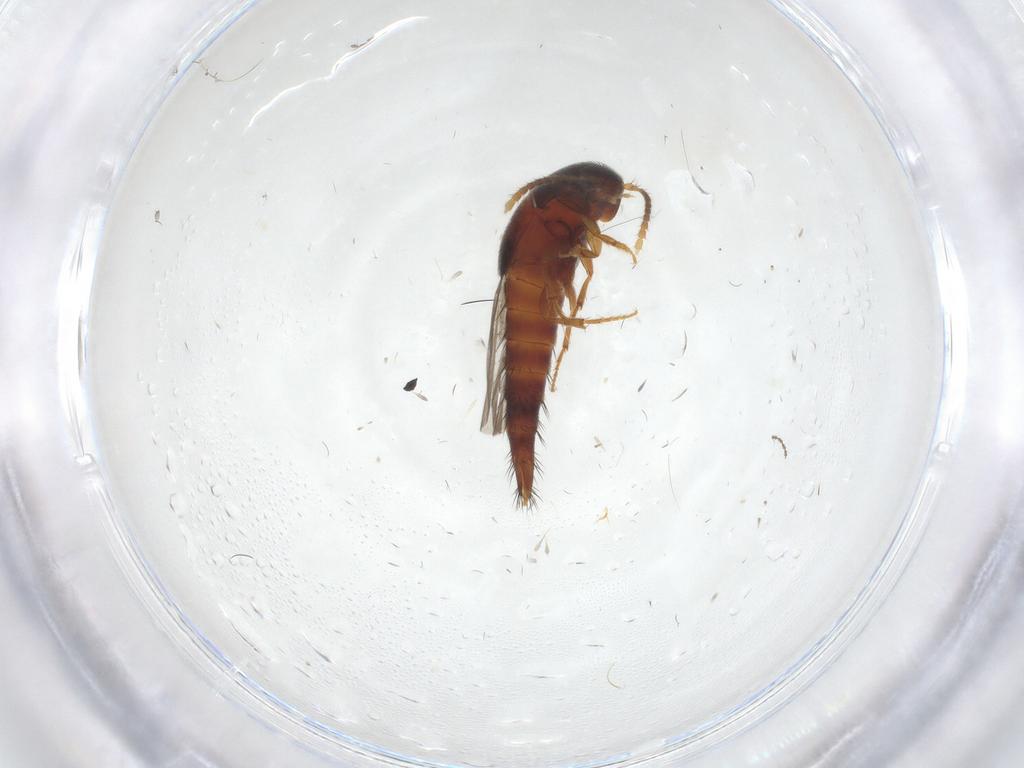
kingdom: Animalia
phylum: Arthropoda
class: Insecta
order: Coleoptera
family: Staphylinidae
